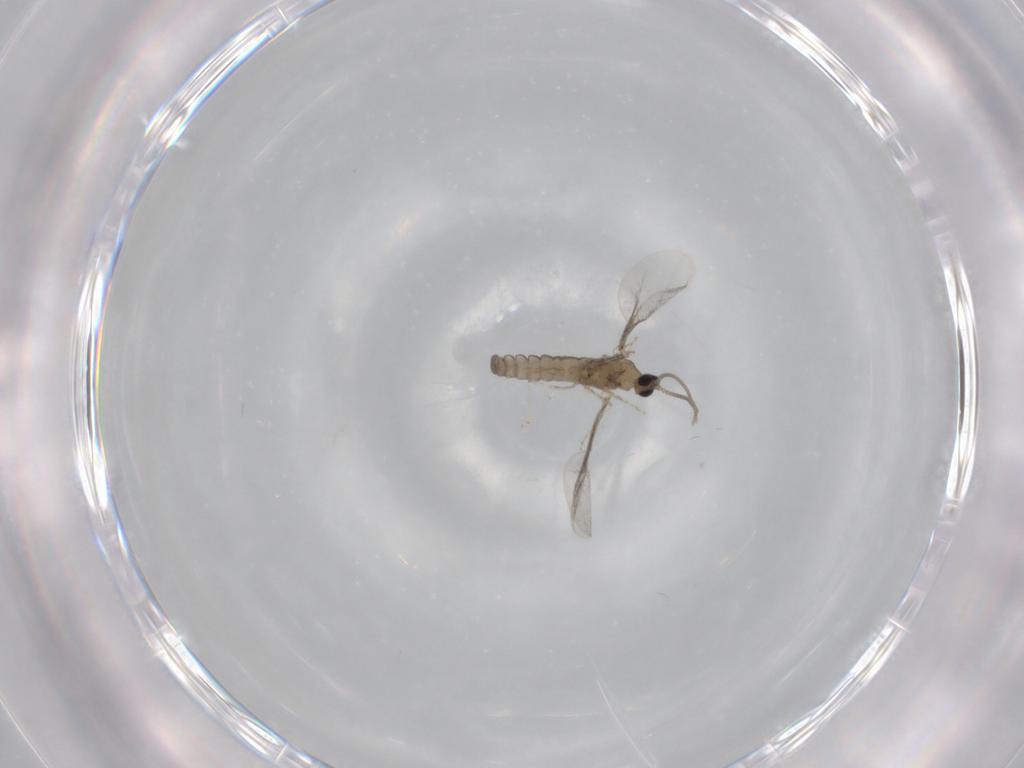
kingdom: Animalia
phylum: Arthropoda
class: Insecta
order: Diptera
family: Cecidomyiidae
